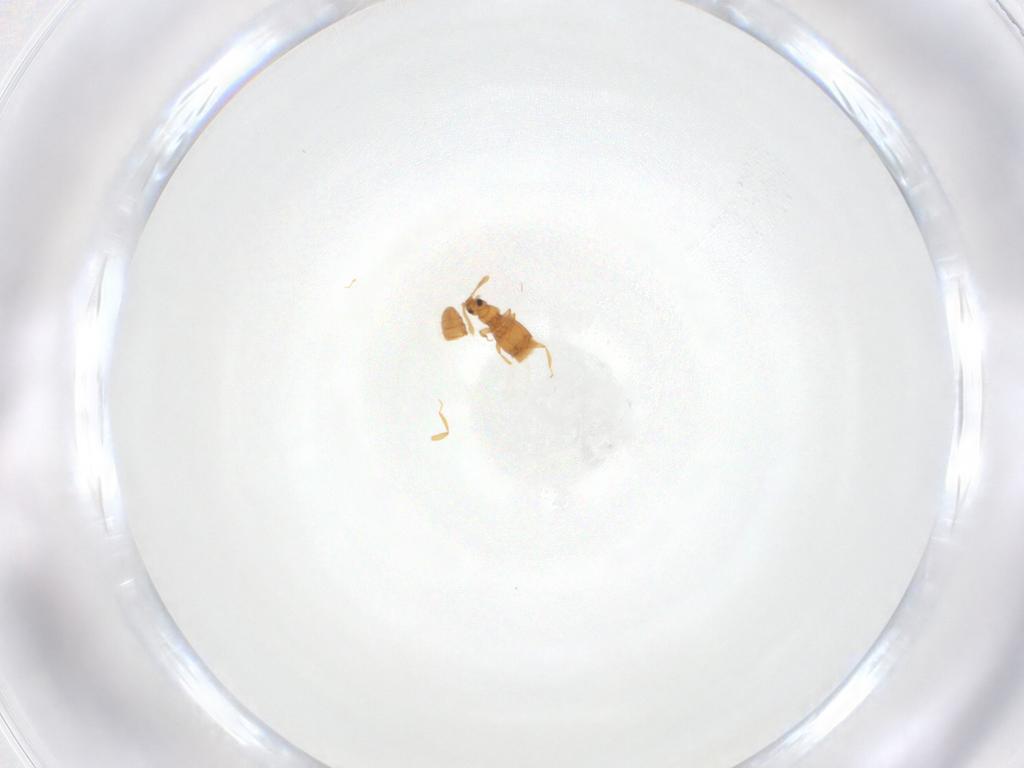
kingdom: Animalia
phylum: Arthropoda
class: Insecta
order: Coleoptera
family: Staphylinidae
